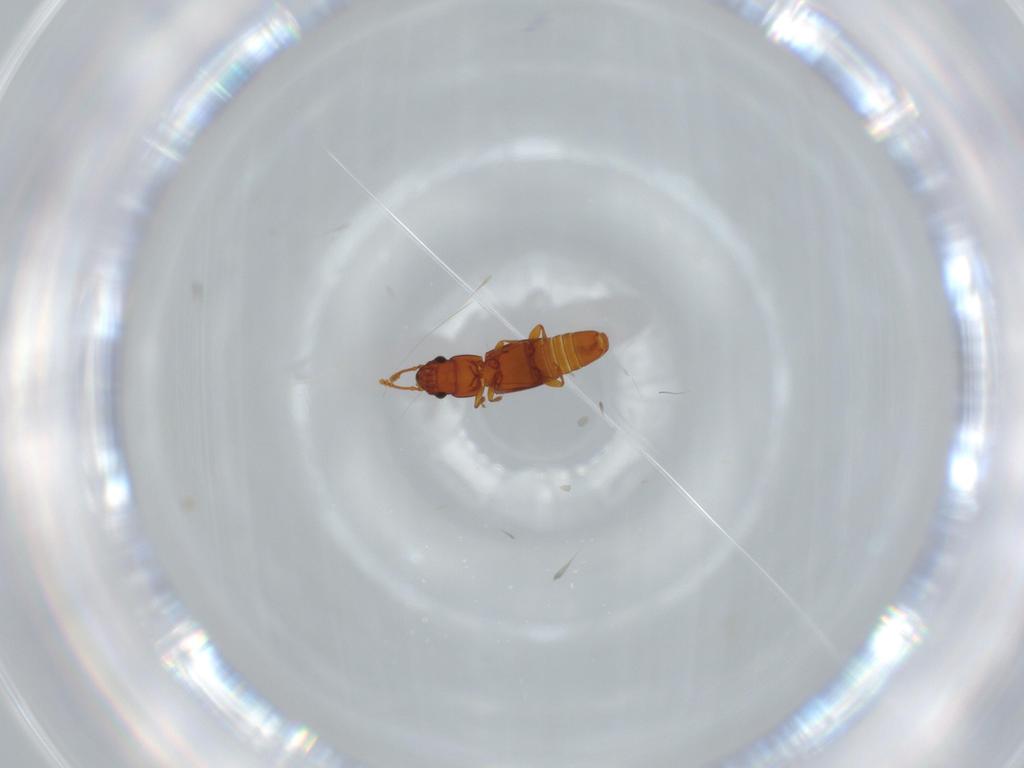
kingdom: Animalia
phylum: Arthropoda
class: Insecta
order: Coleoptera
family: Smicripidae
